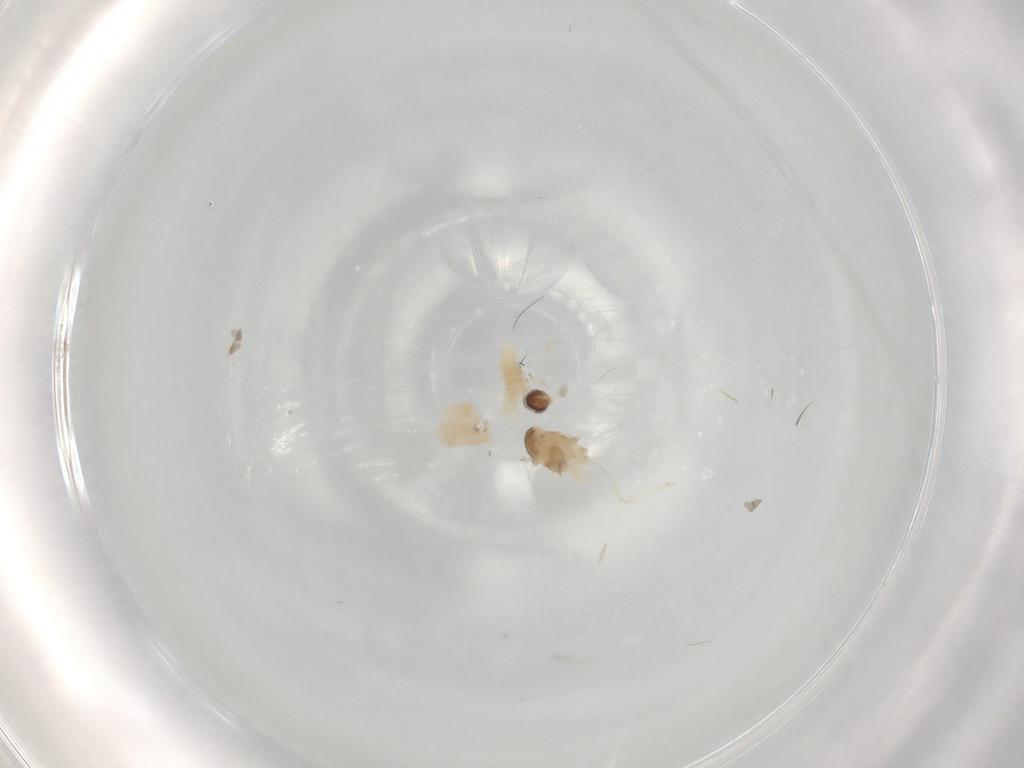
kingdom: Animalia
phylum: Arthropoda
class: Insecta
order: Diptera
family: Cecidomyiidae
